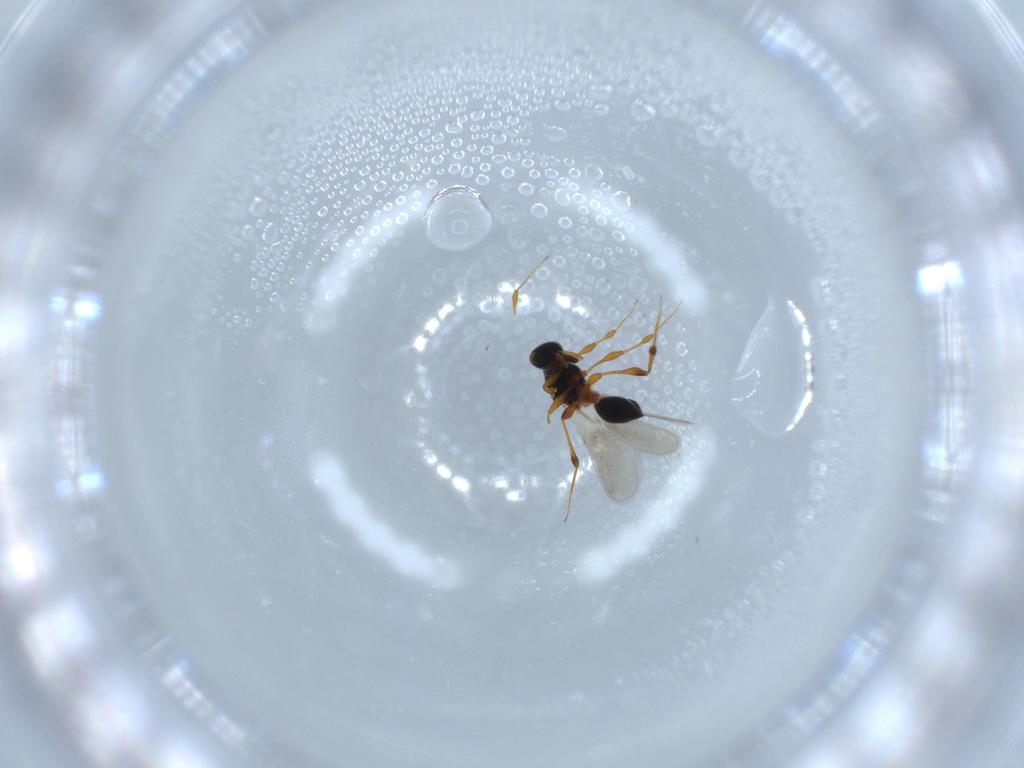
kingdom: Animalia
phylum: Arthropoda
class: Insecta
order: Hymenoptera
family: Platygastridae
